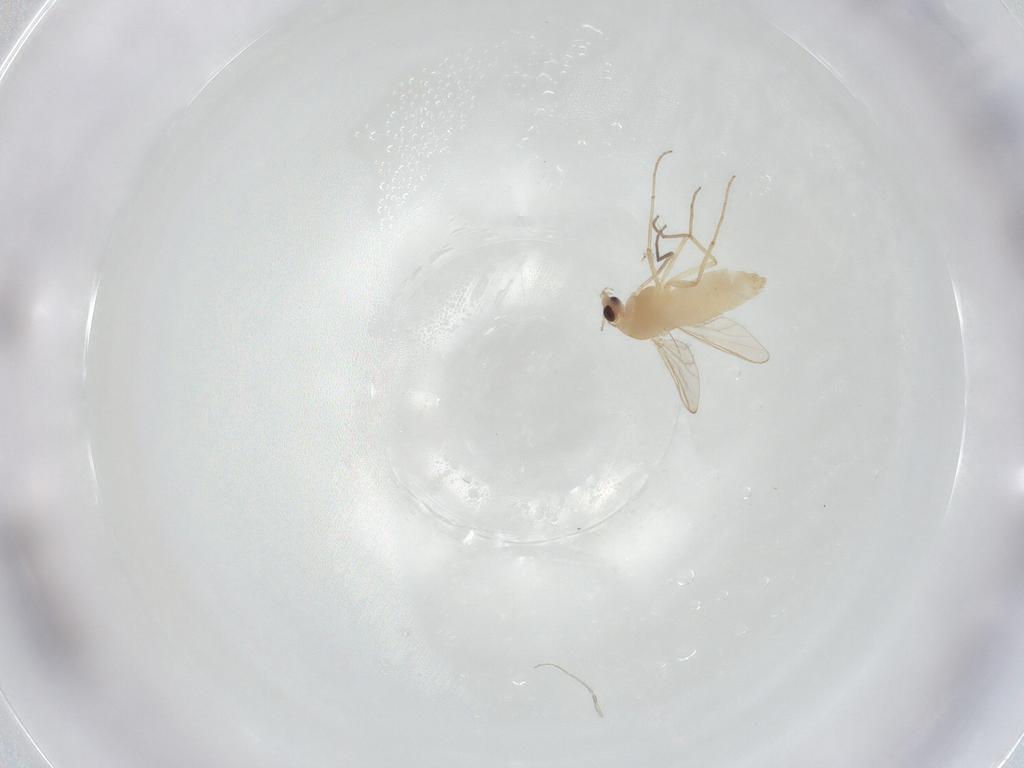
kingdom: Animalia
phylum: Arthropoda
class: Insecta
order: Diptera
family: Chironomidae
